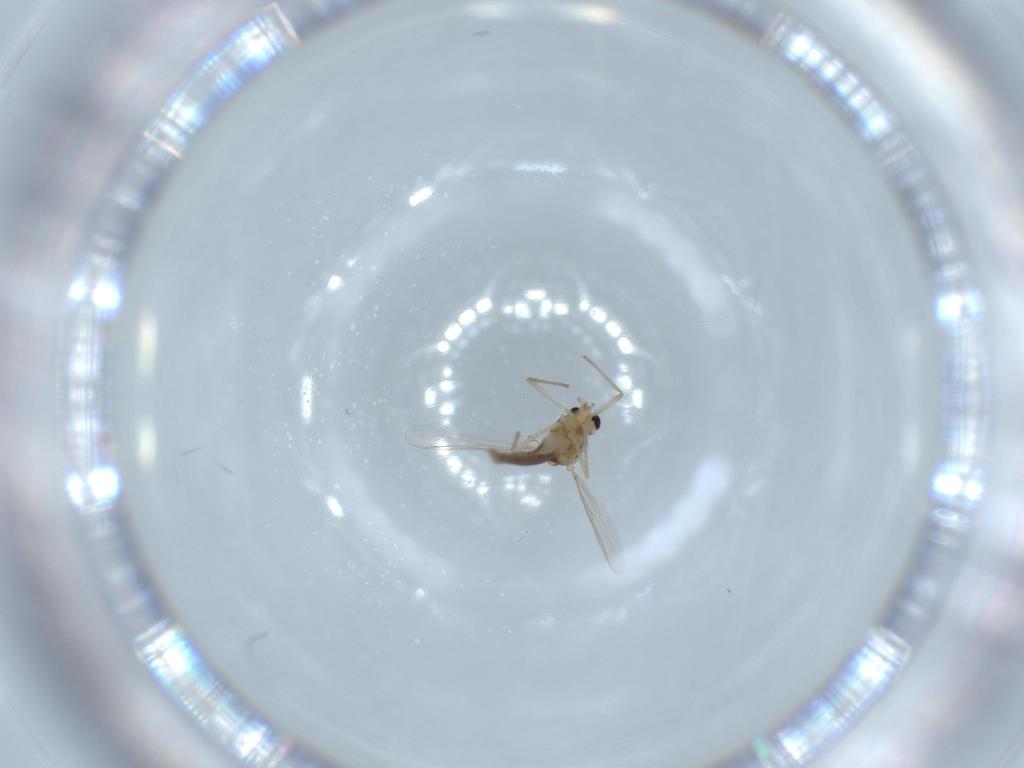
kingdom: Animalia
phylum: Arthropoda
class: Insecta
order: Diptera
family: Chironomidae
